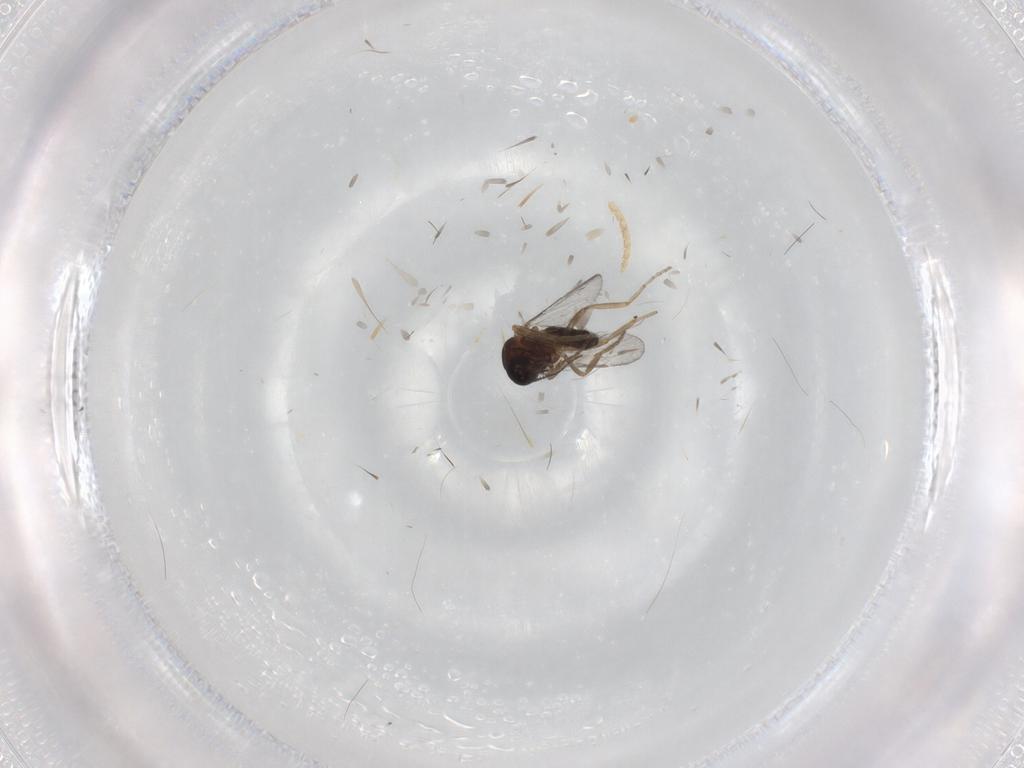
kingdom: Animalia
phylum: Arthropoda
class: Insecta
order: Diptera
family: Ceratopogonidae
